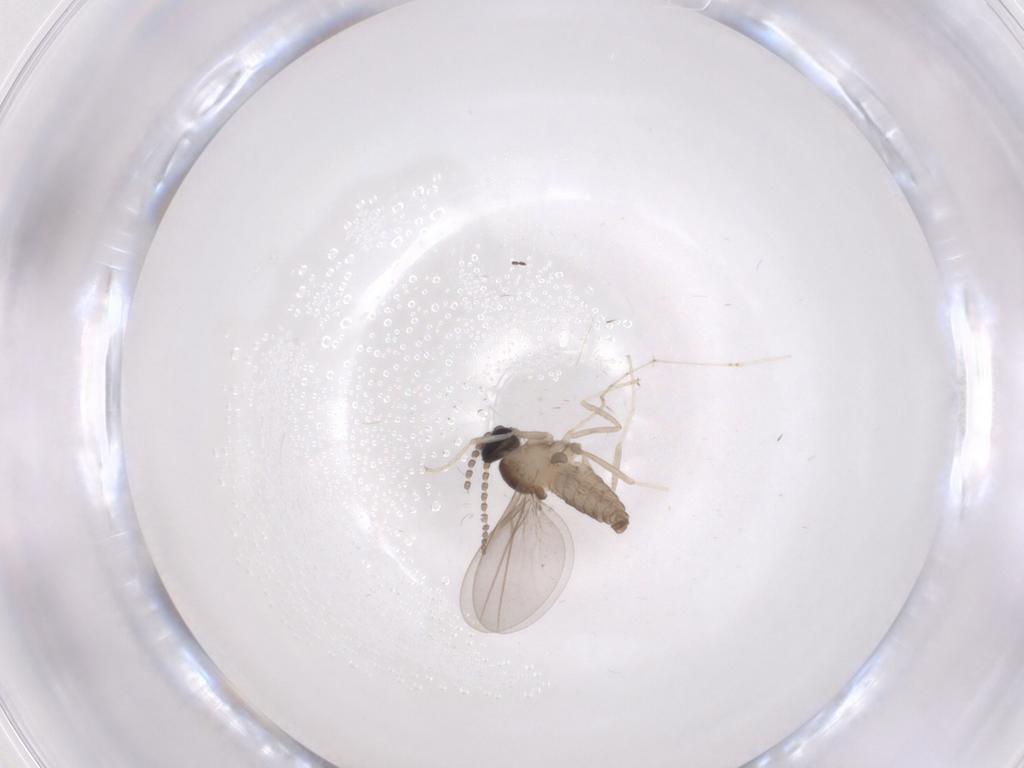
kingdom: Animalia
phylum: Arthropoda
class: Insecta
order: Diptera
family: Cecidomyiidae
